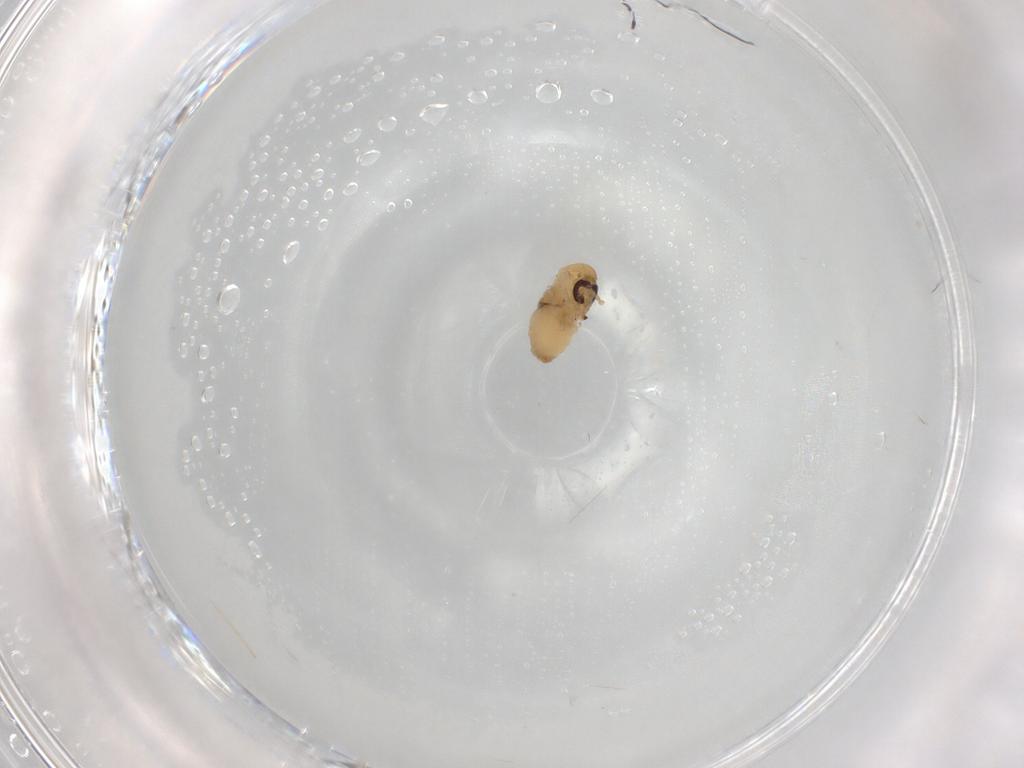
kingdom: Animalia
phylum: Arthropoda
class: Insecta
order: Diptera
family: Psychodidae
